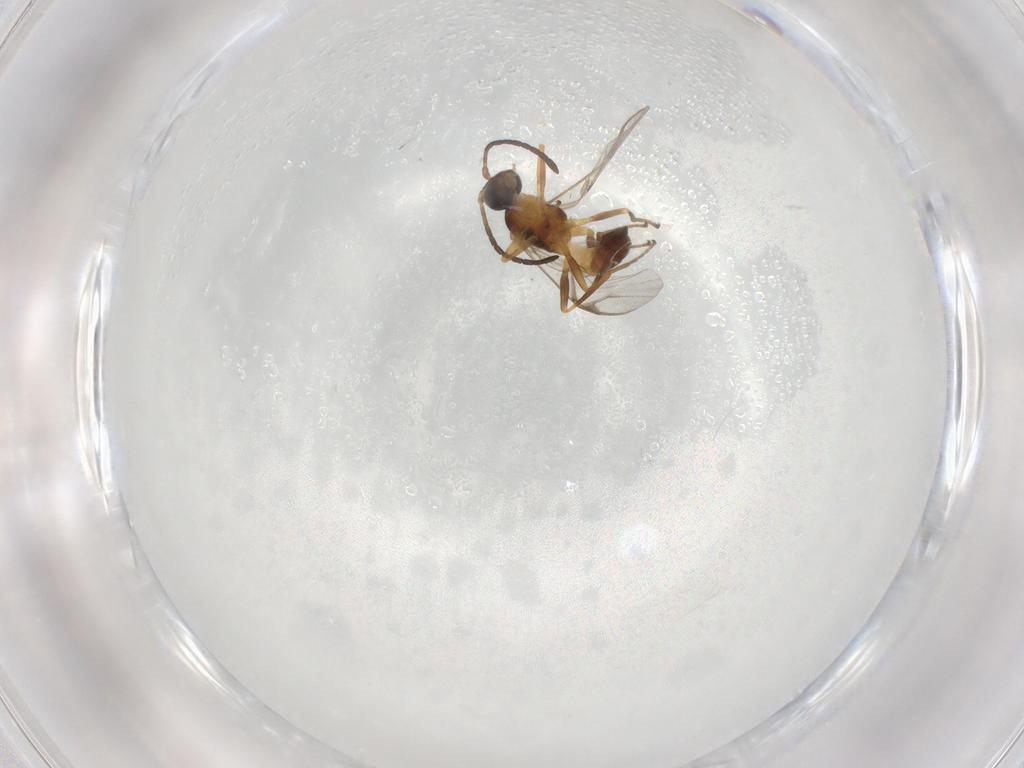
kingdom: Animalia
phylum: Arthropoda
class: Insecta
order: Hymenoptera
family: Braconidae
